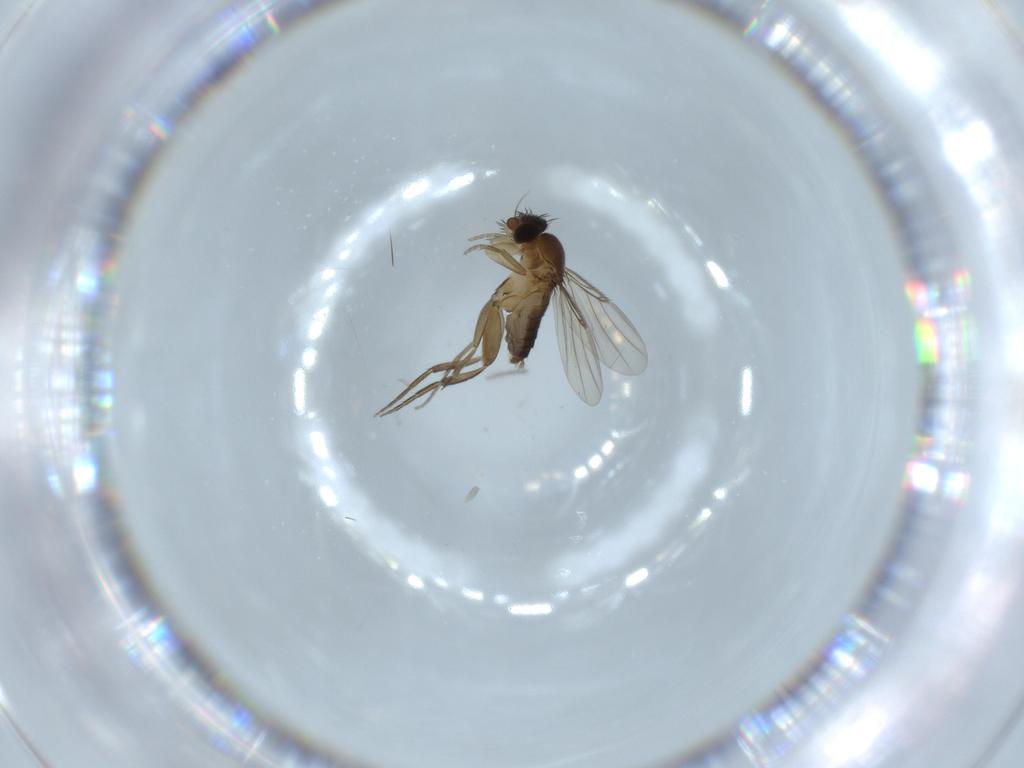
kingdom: Animalia
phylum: Arthropoda
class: Insecta
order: Diptera
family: Phoridae
